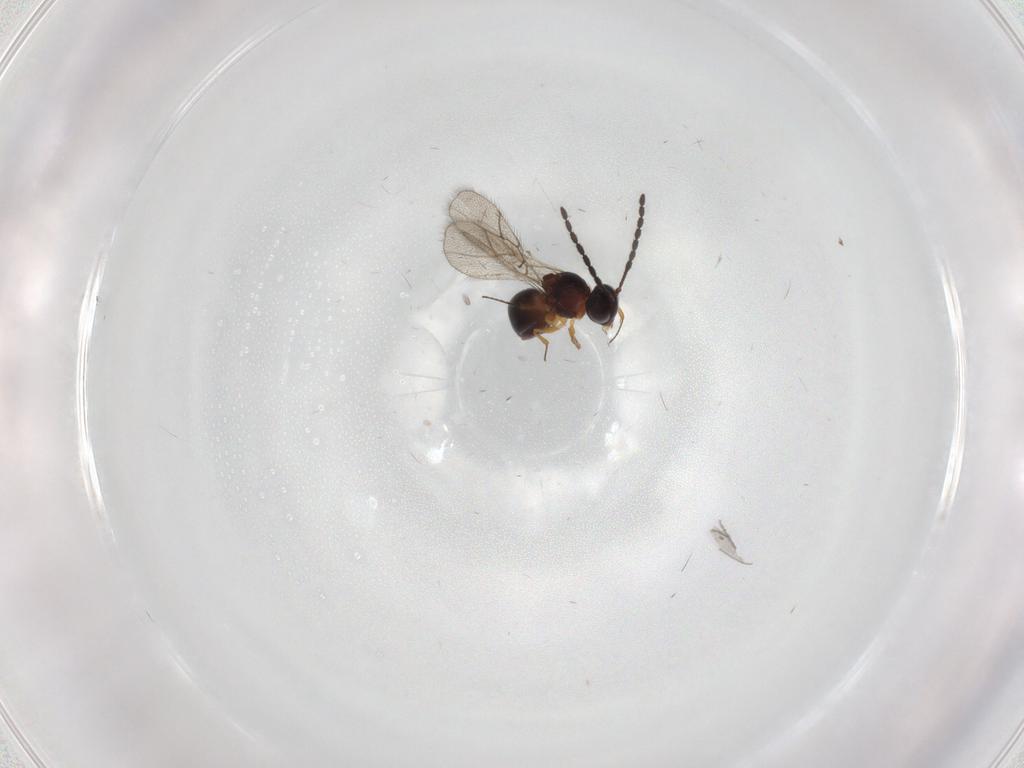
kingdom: Animalia
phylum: Arthropoda
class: Insecta
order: Hymenoptera
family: Figitidae
